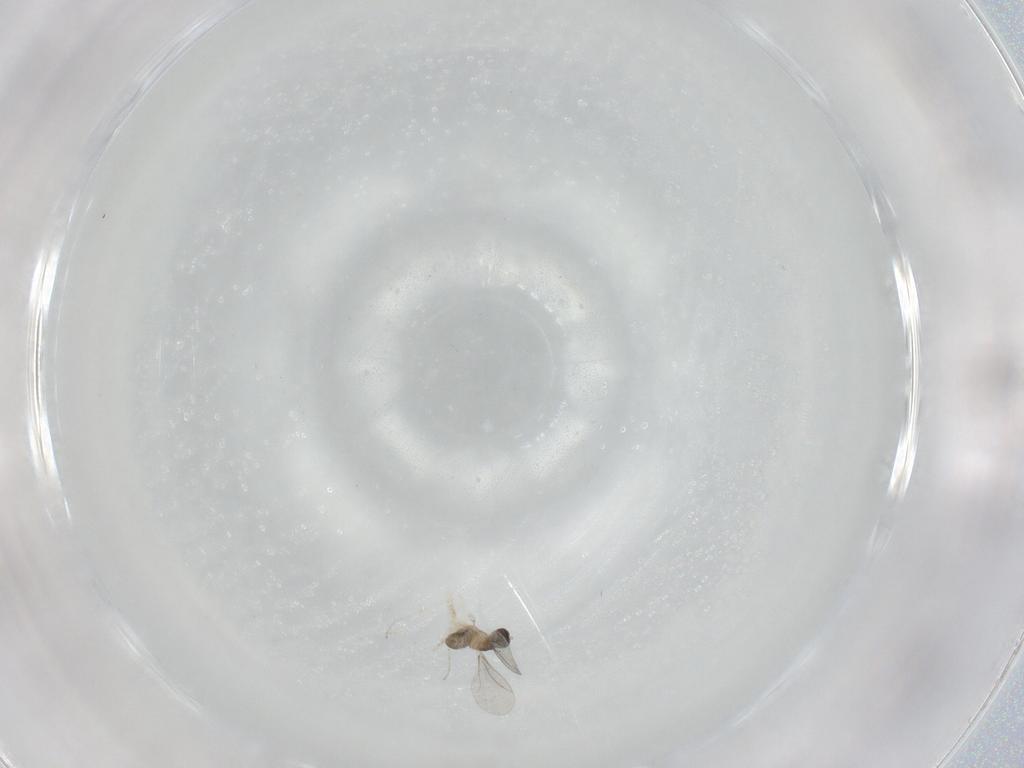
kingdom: Animalia
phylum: Arthropoda
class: Insecta
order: Diptera
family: Cecidomyiidae
